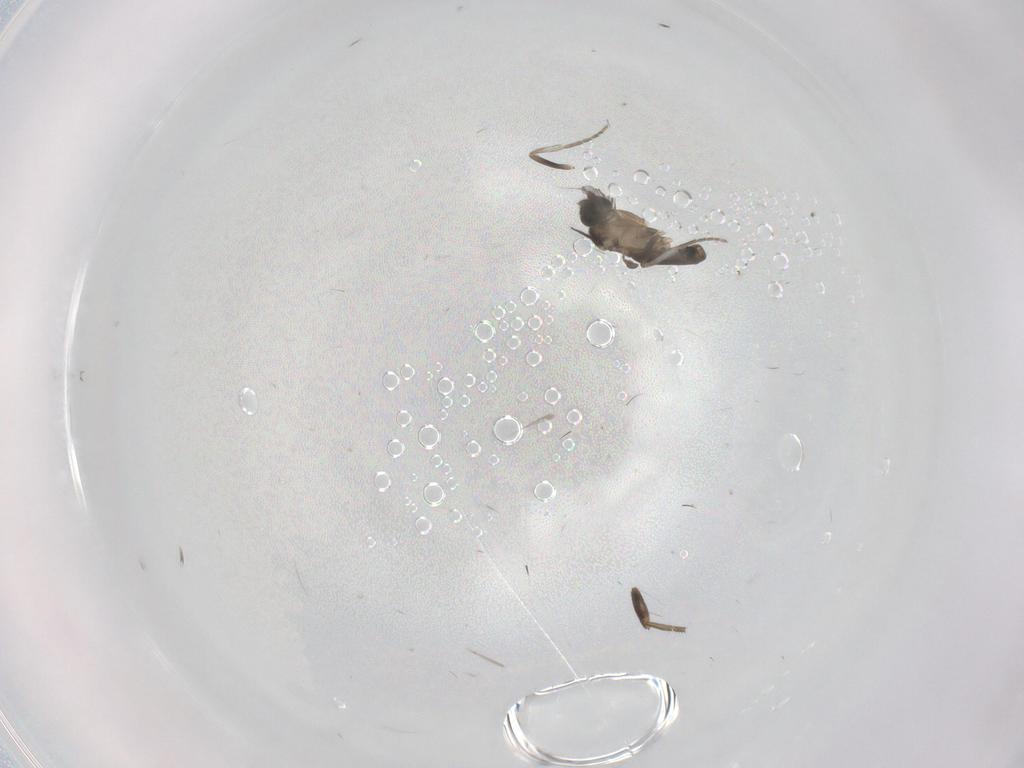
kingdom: Animalia
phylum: Arthropoda
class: Insecta
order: Diptera
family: Phoridae
